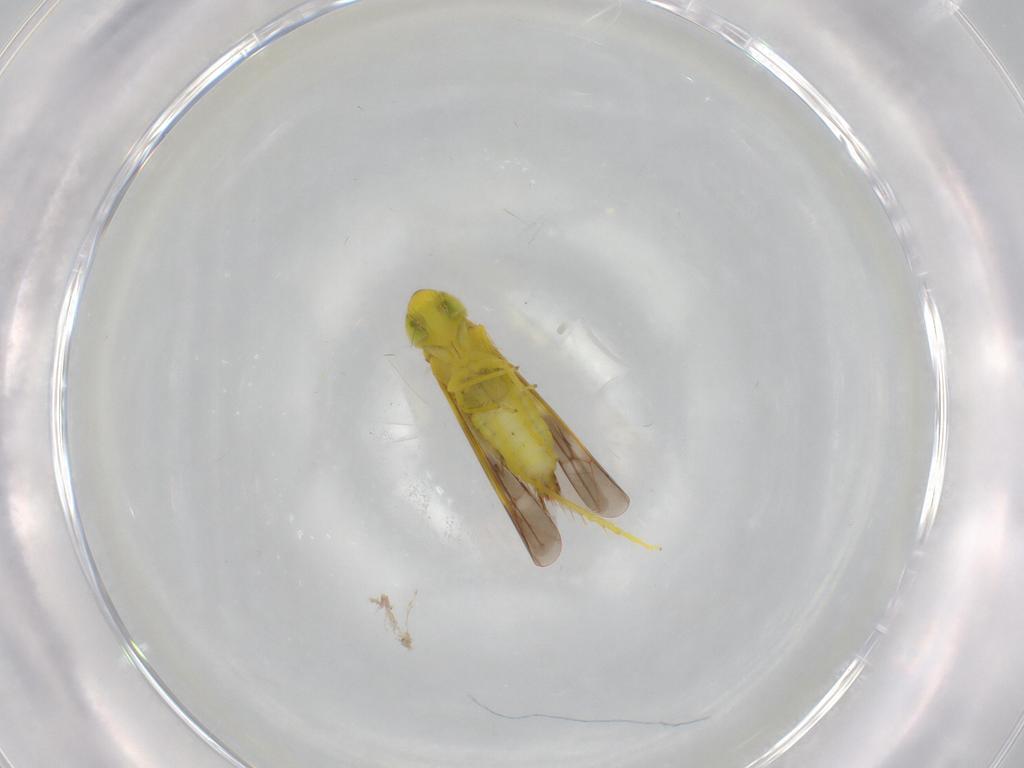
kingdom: Animalia
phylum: Arthropoda
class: Insecta
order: Hemiptera
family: Cicadellidae
